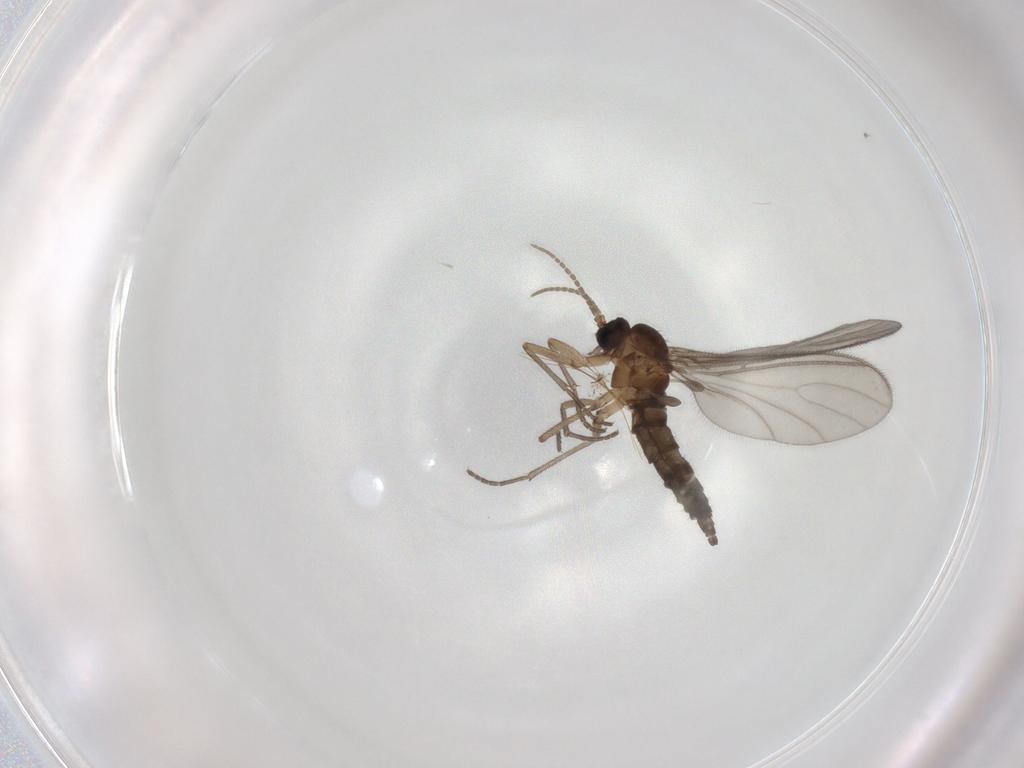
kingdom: Animalia
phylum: Arthropoda
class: Insecta
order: Diptera
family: Sciaridae
